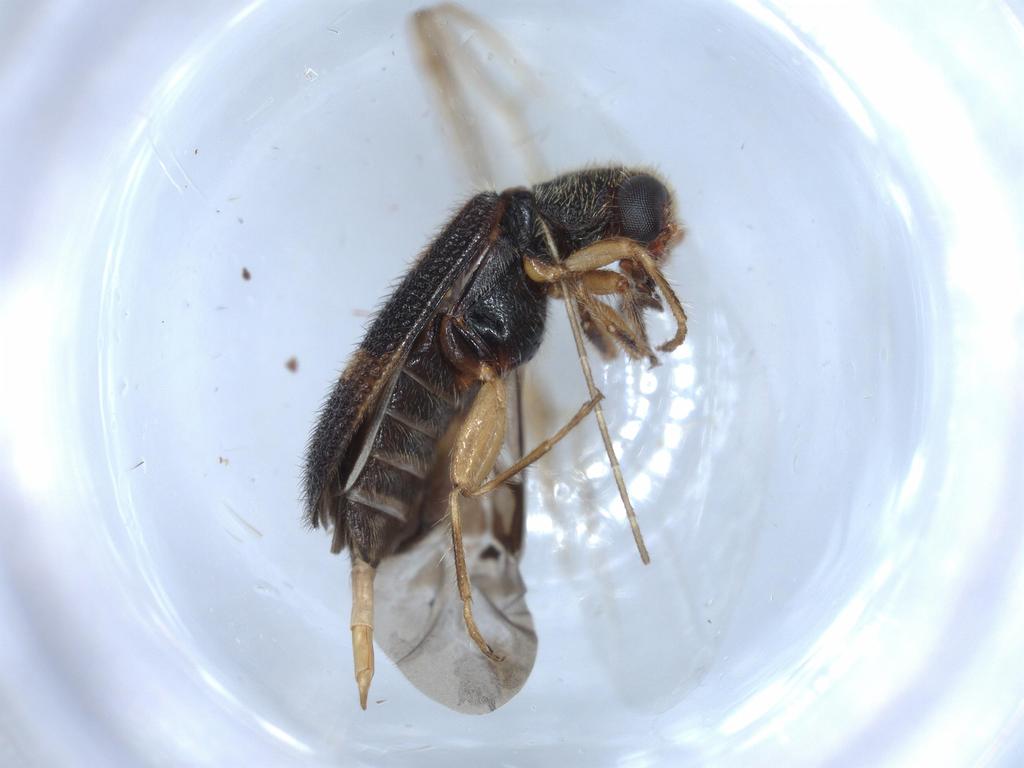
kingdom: Animalia
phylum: Arthropoda
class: Insecta
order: Coleoptera
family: Cleridae
